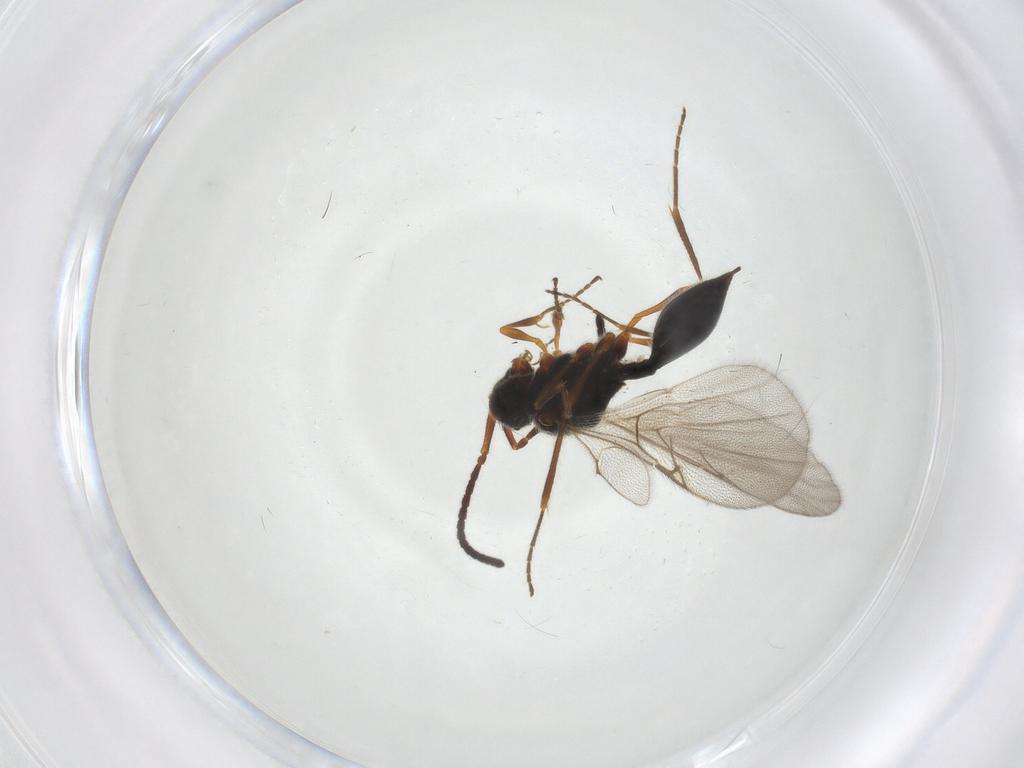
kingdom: Animalia
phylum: Arthropoda
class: Insecta
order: Hymenoptera
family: Diapriidae
